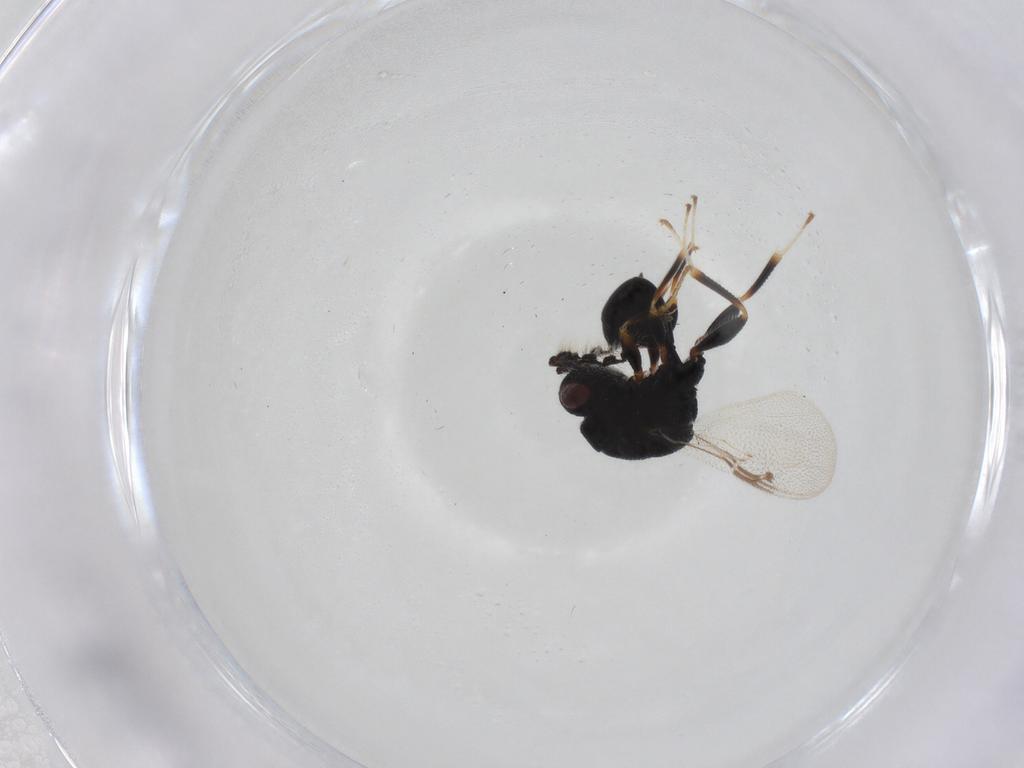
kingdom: Animalia
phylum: Arthropoda
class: Insecta
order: Hymenoptera
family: Eurytomidae
